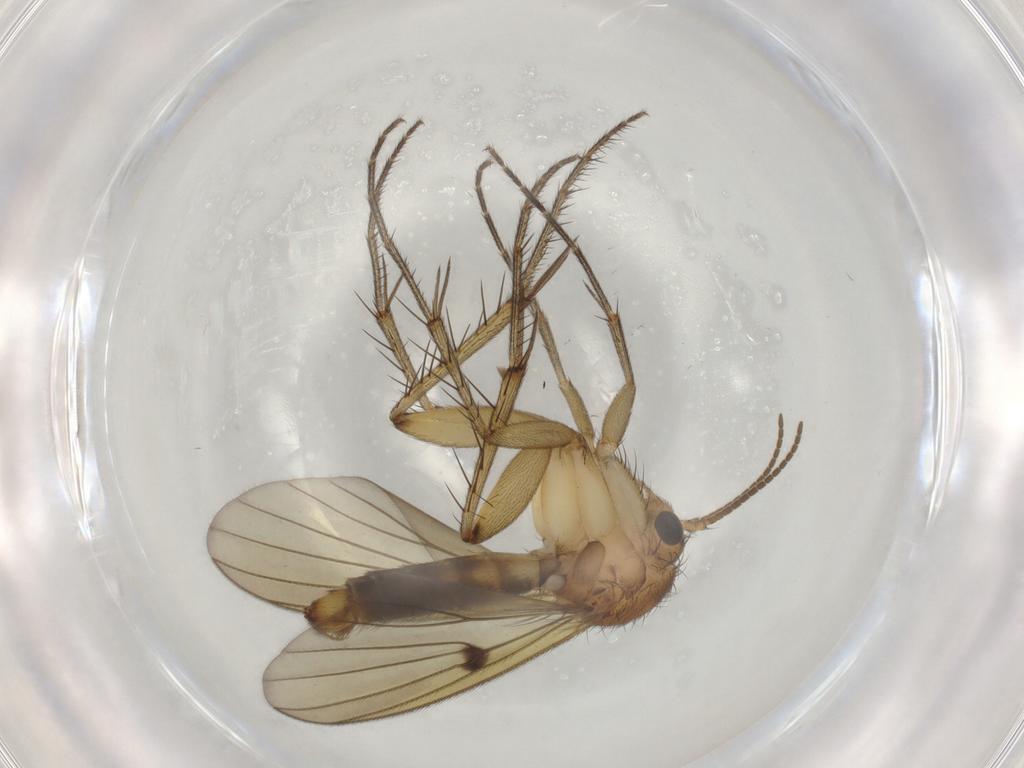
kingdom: Animalia
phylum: Arthropoda
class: Insecta
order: Diptera
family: Mycetophilidae
